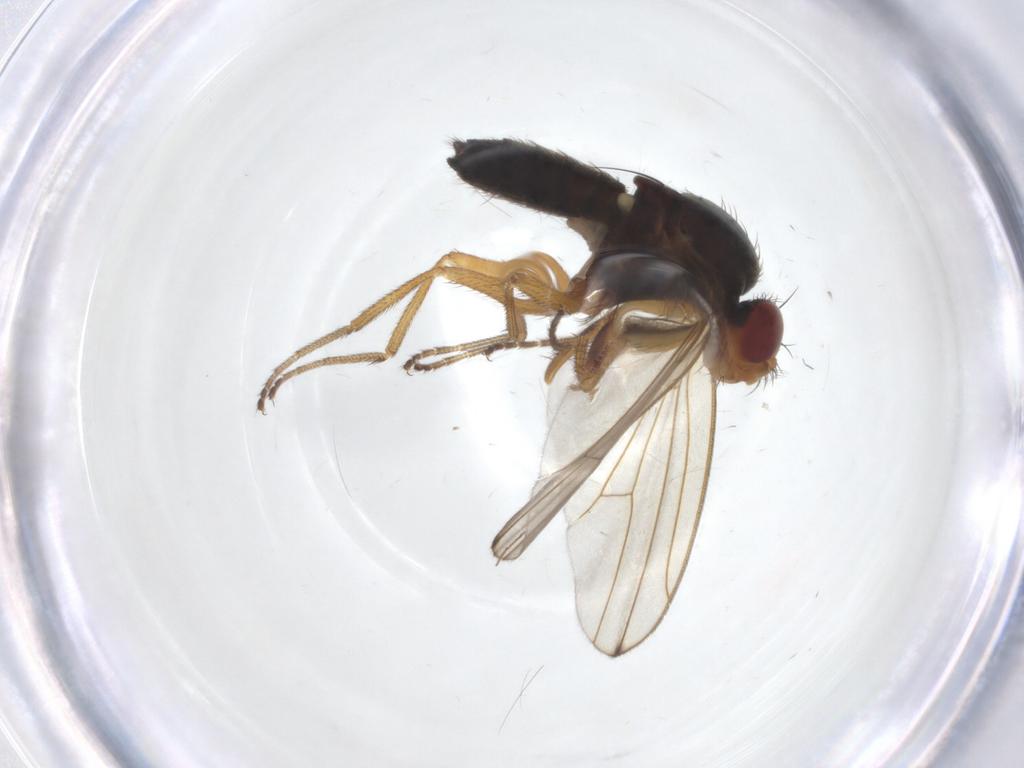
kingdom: Animalia
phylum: Arthropoda
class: Insecta
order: Diptera
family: Drosophilidae
